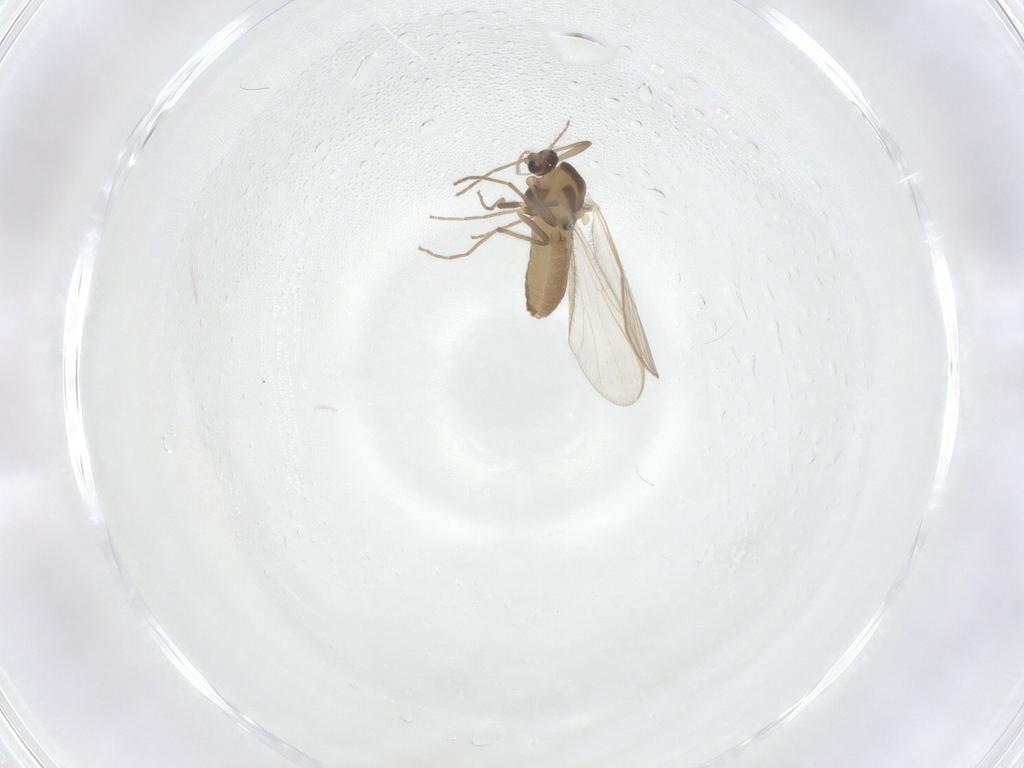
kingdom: Animalia
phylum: Arthropoda
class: Insecta
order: Diptera
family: Chironomidae
